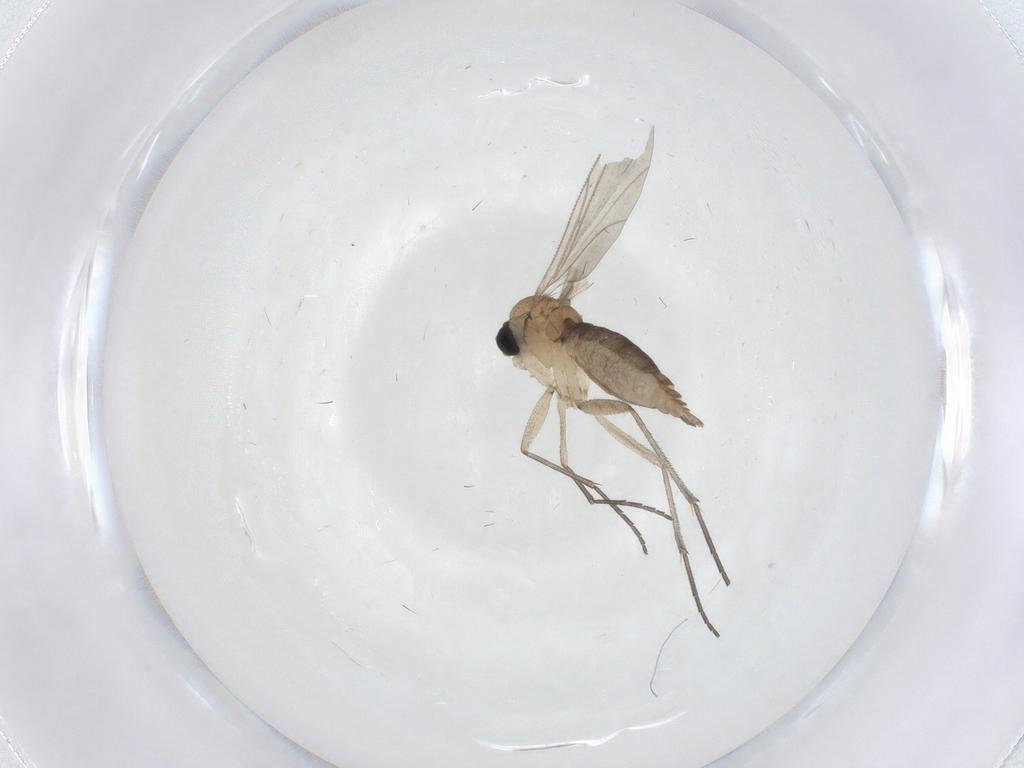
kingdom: Animalia
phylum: Arthropoda
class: Insecta
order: Diptera
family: Sciaridae
